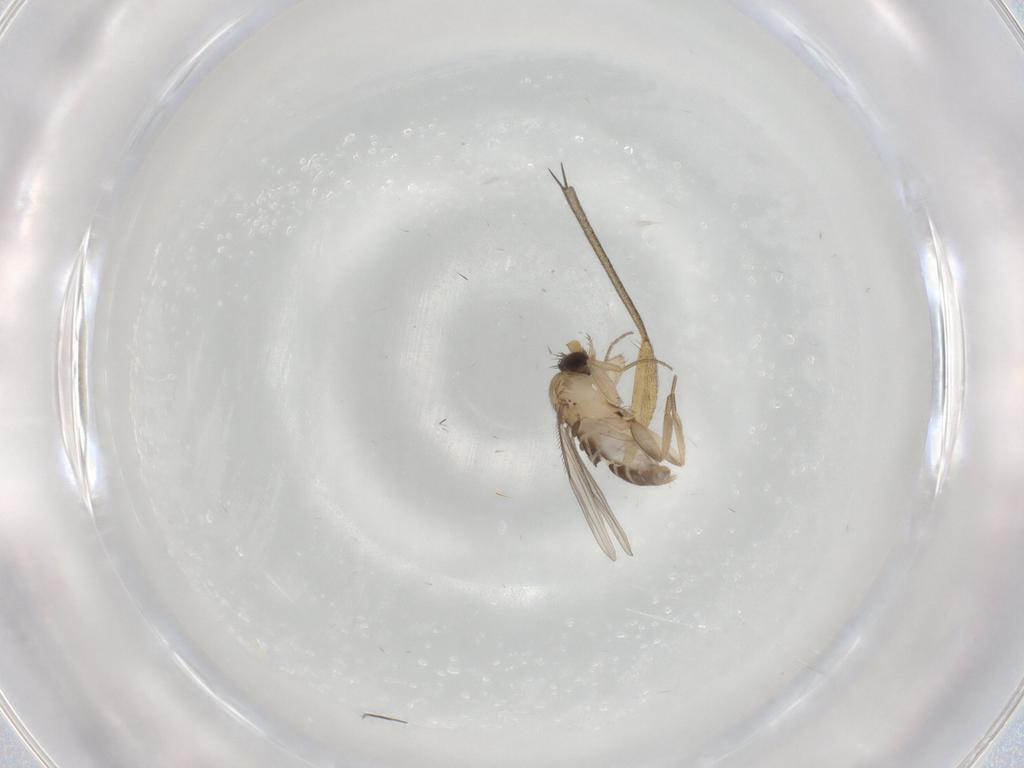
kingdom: Animalia
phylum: Arthropoda
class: Insecta
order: Diptera
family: Mycetophilidae
